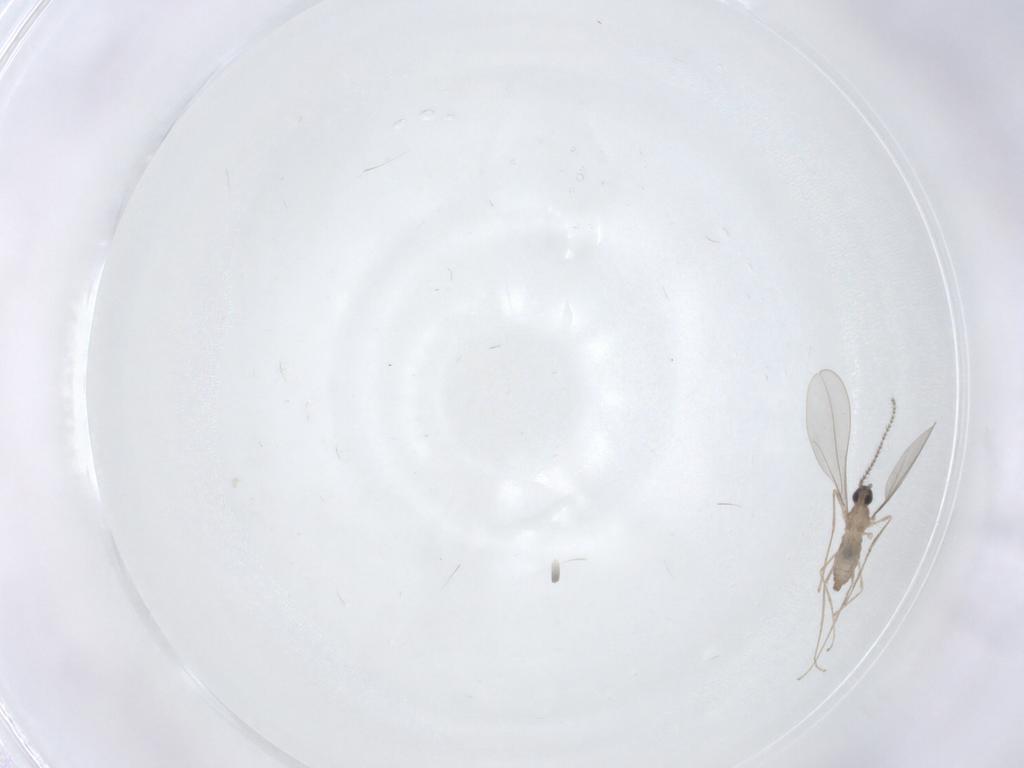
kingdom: Animalia
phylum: Arthropoda
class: Insecta
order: Diptera
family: Cecidomyiidae
